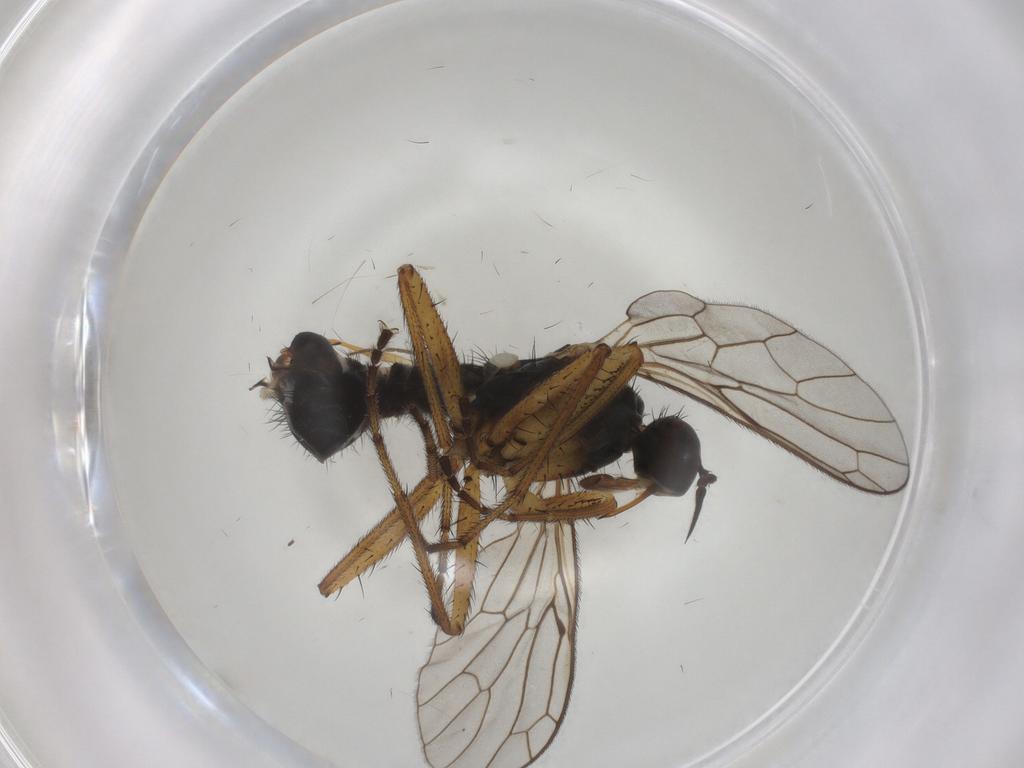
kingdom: Animalia
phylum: Arthropoda
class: Insecta
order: Diptera
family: Empididae
